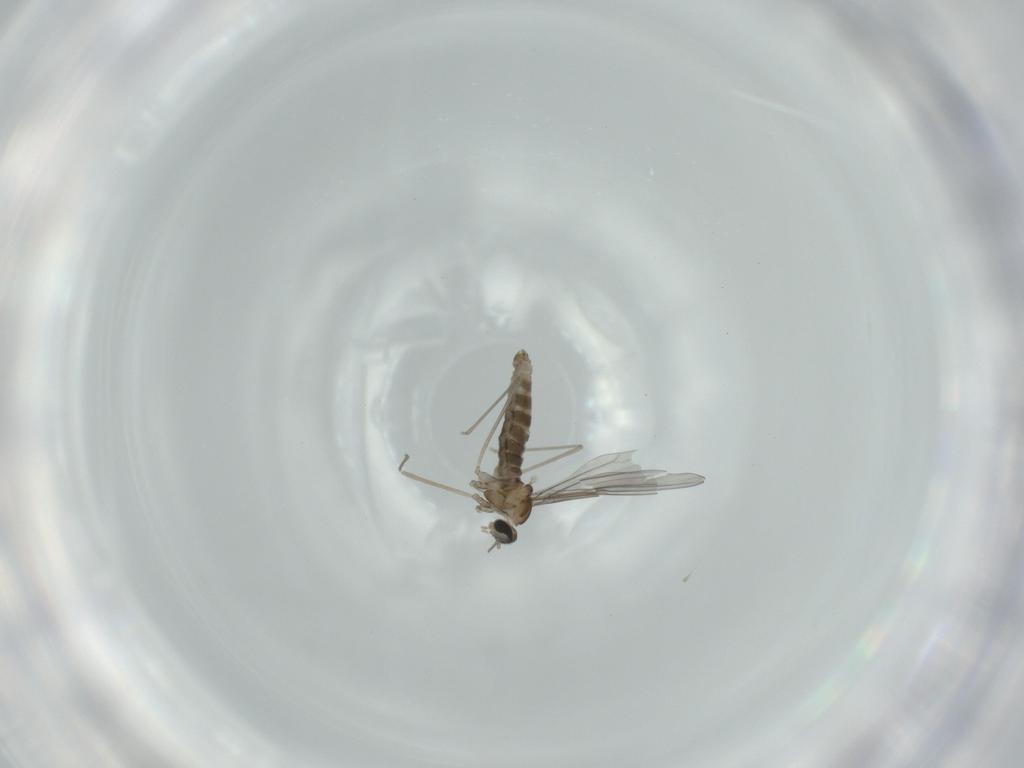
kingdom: Animalia
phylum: Arthropoda
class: Insecta
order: Diptera
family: Cecidomyiidae
